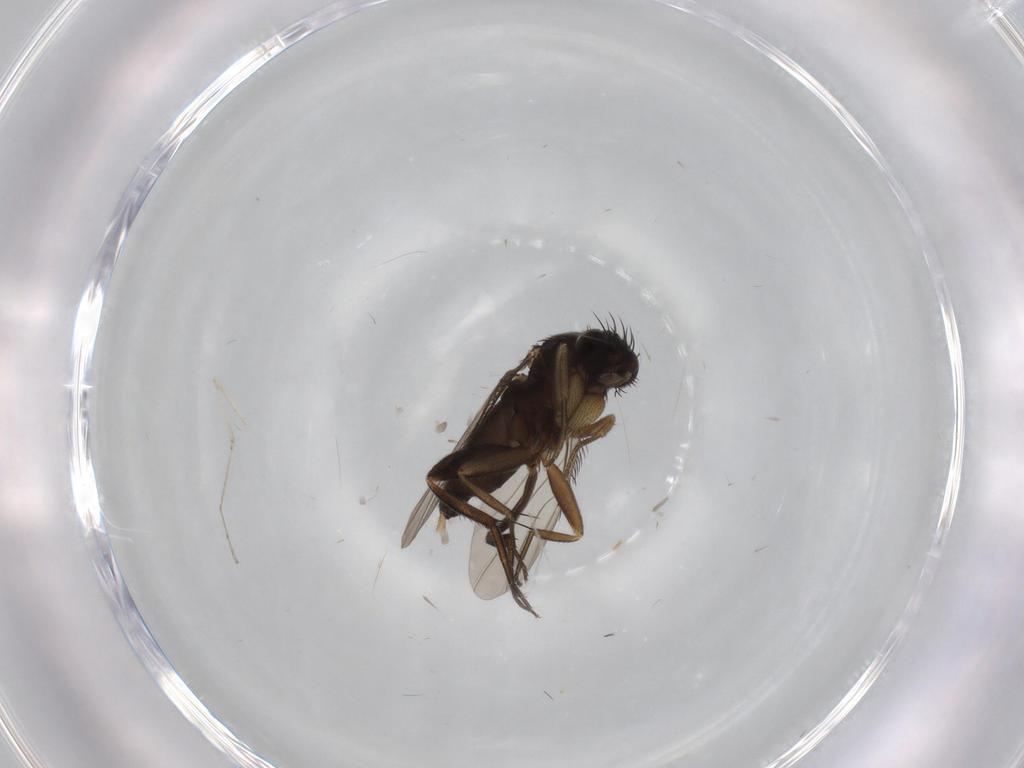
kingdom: Animalia
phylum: Arthropoda
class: Insecta
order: Diptera
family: Phoridae
